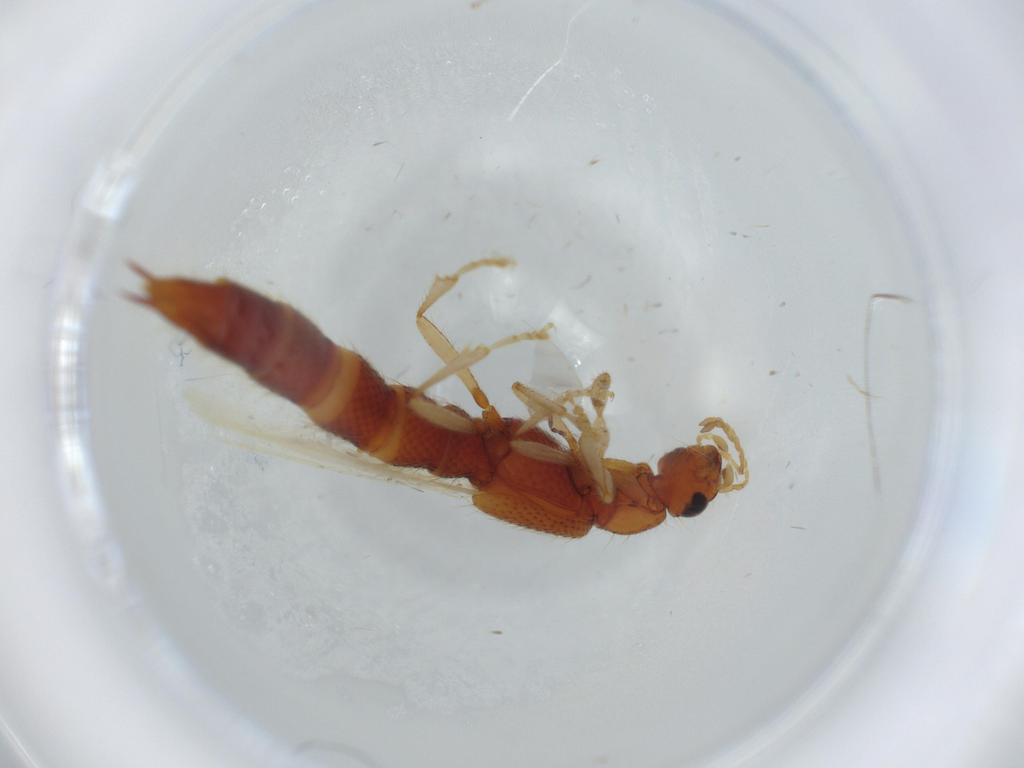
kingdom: Animalia
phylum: Arthropoda
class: Insecta
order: Coleoptera
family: Staphylinidae
